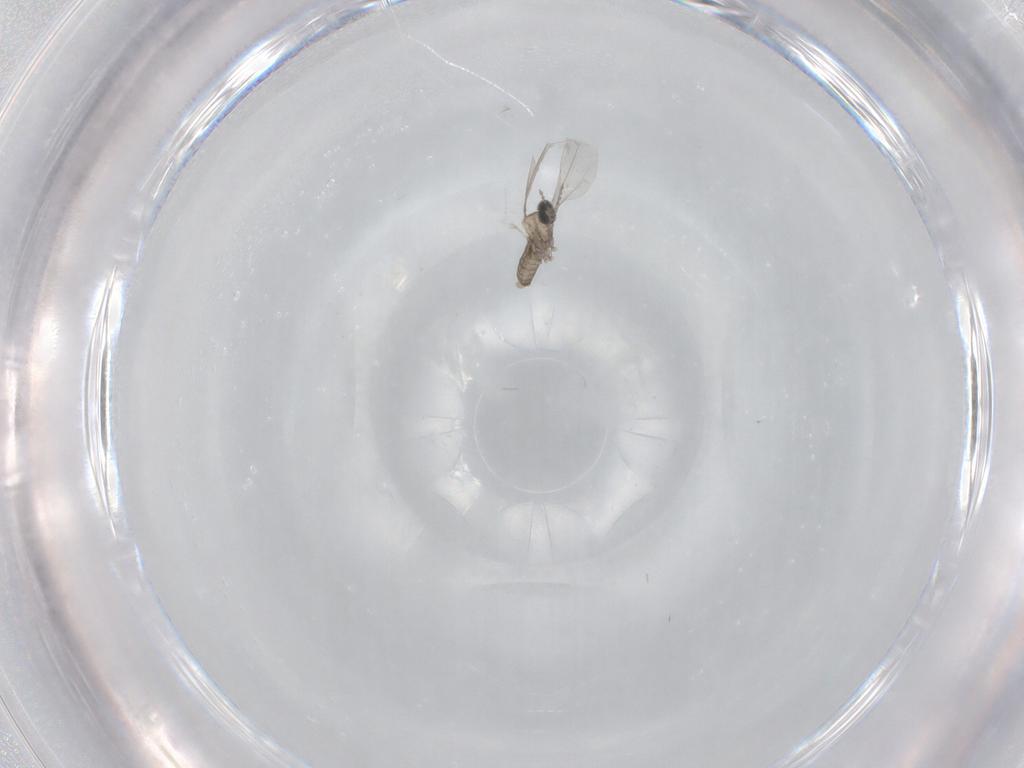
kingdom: Animalia
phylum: Arthropoda
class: Insecta
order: Diptera
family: Cecidomyiidae
